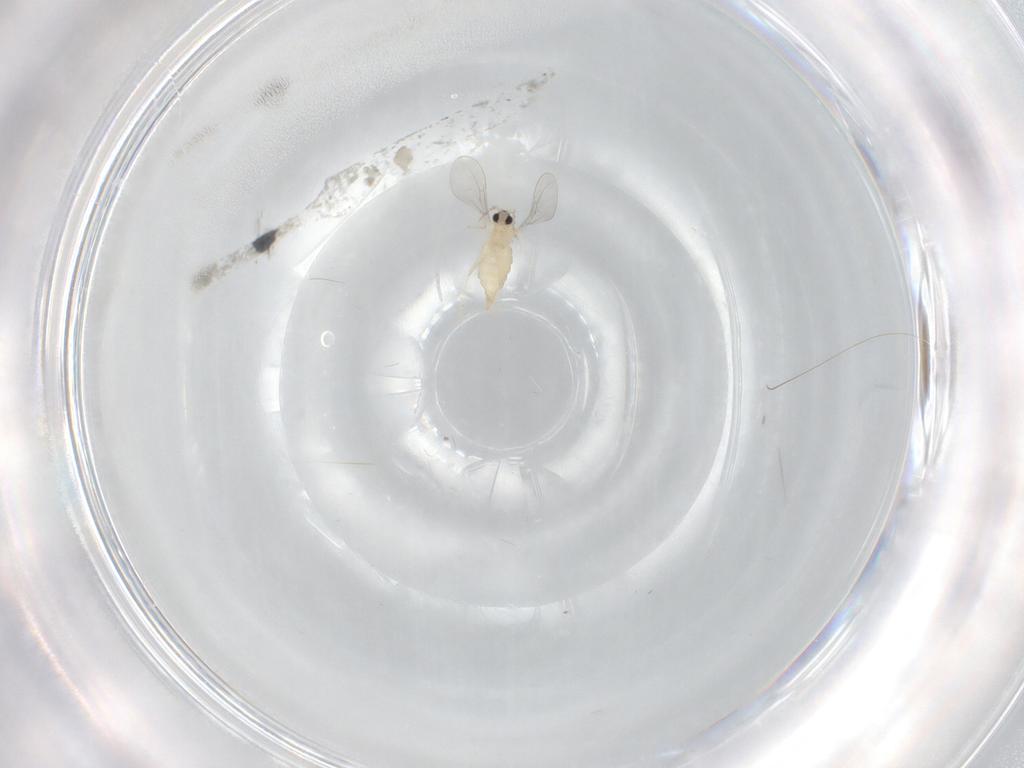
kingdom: Animalia
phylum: Arthropoda
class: Insecta
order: Diptera
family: Cecidomyiidae
